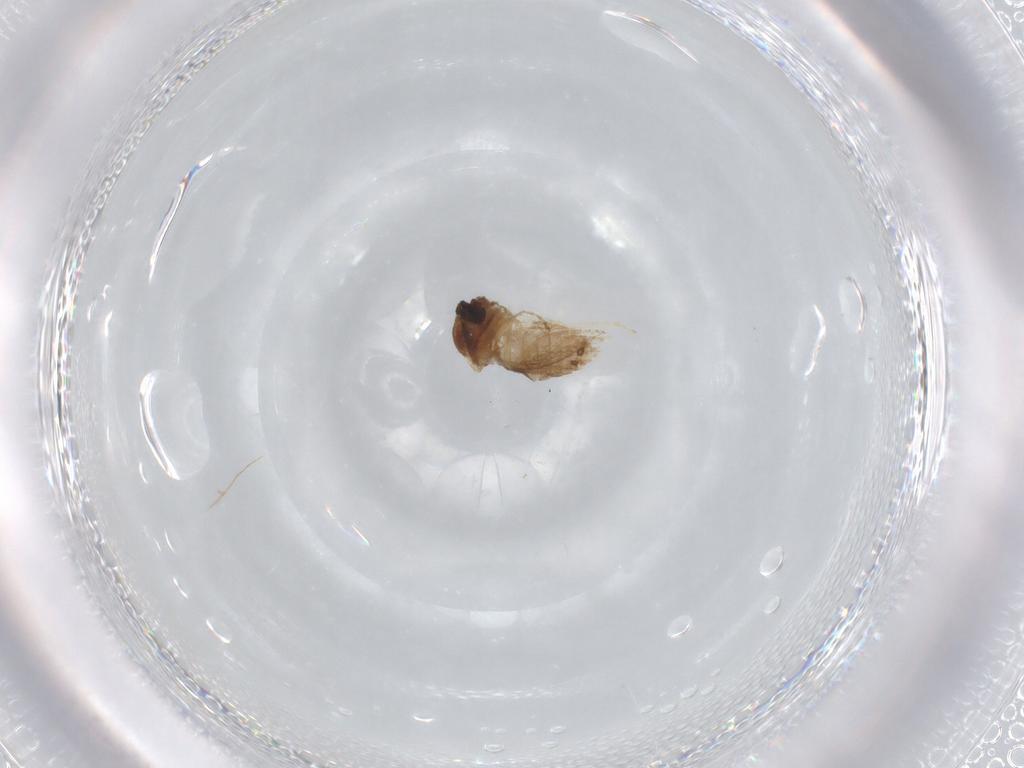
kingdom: Animalia
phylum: Arthropoda
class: Insecta
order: Diptera
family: Ceratopogonidae
